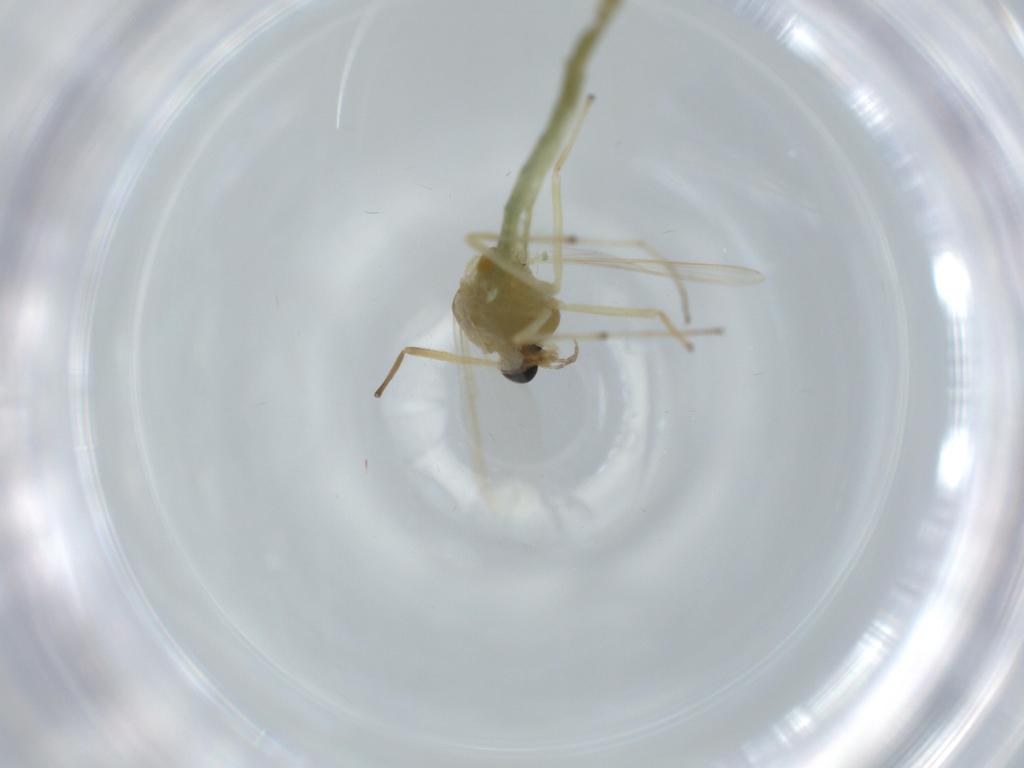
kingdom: Animalia
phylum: Arthropoda
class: Insecta
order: Diptera
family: Chironomidae
